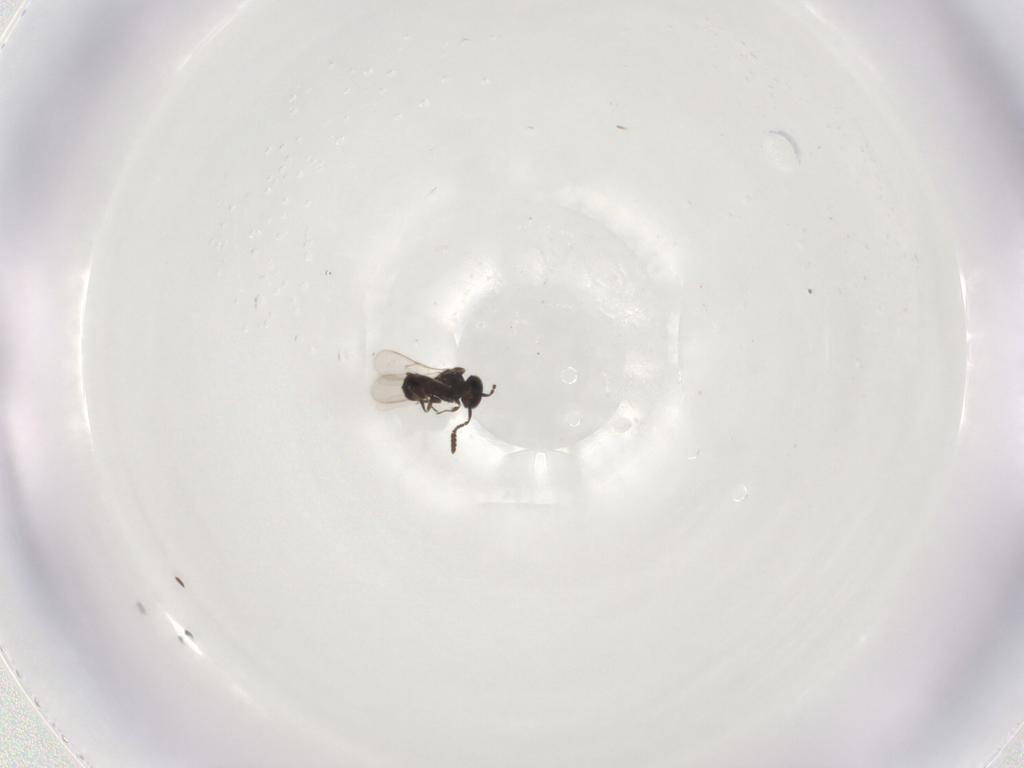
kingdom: Animalia
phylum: Arthropoda
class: Insecta
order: Hymenoptera
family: Scelionidae
